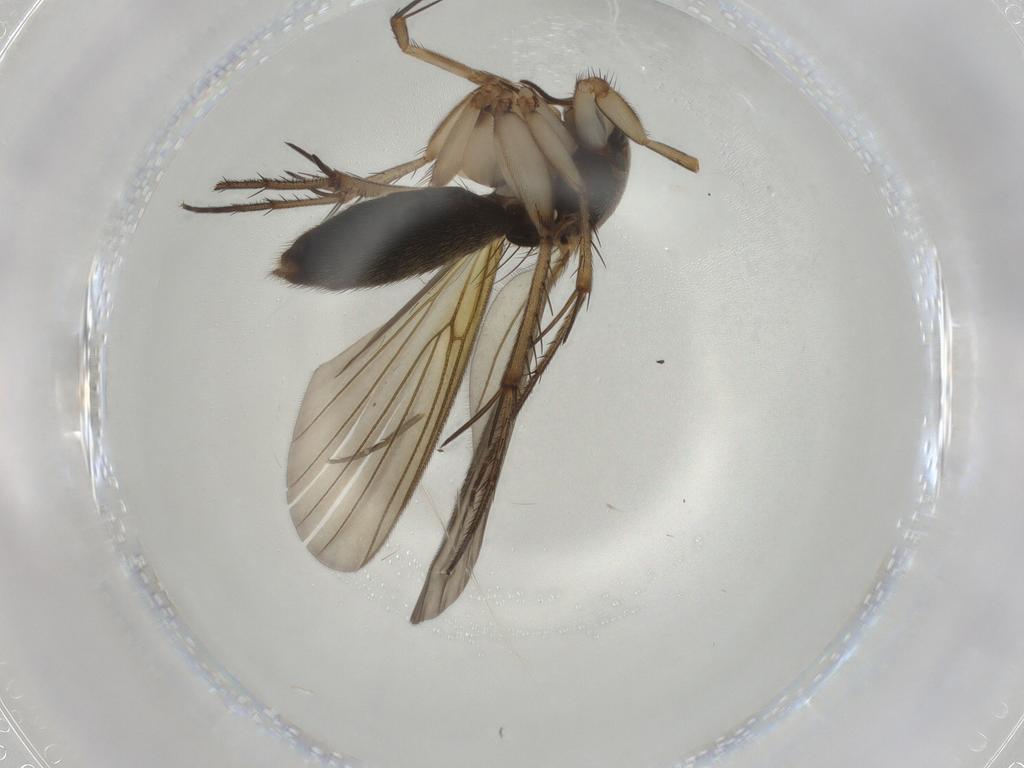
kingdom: Animalia
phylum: Arthropoda
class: Insecta
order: Diptera
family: Mycetophilidae
